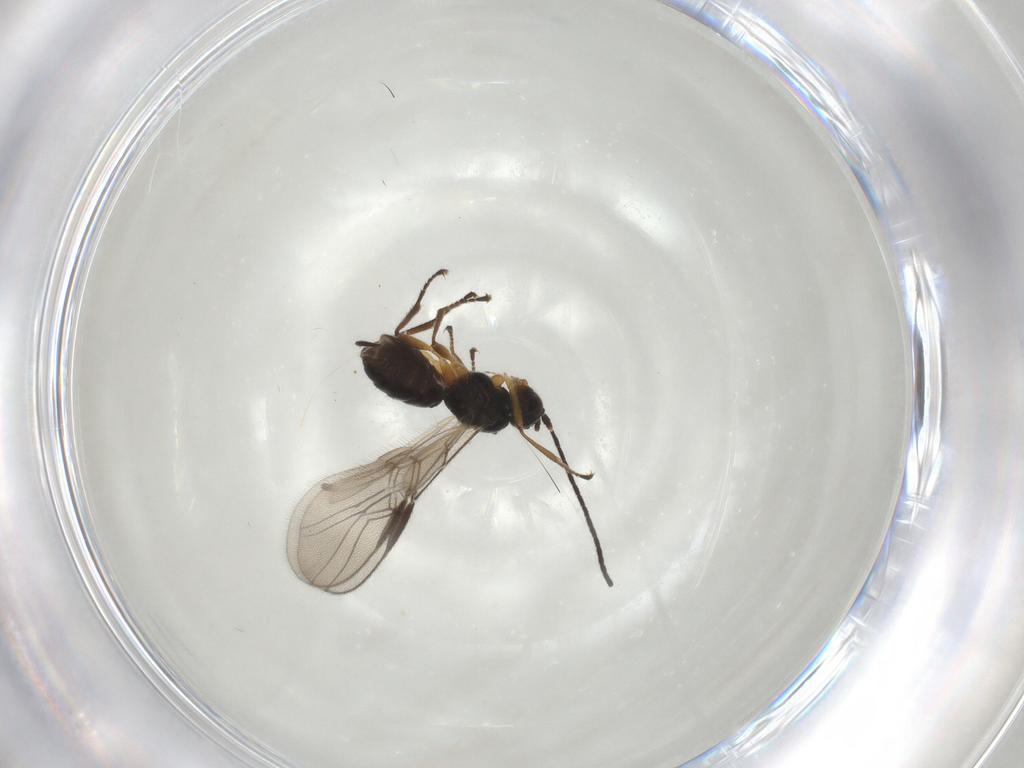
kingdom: Animalia
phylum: Arthropoda
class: Insecta
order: Hymenoptera
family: Braconidae
